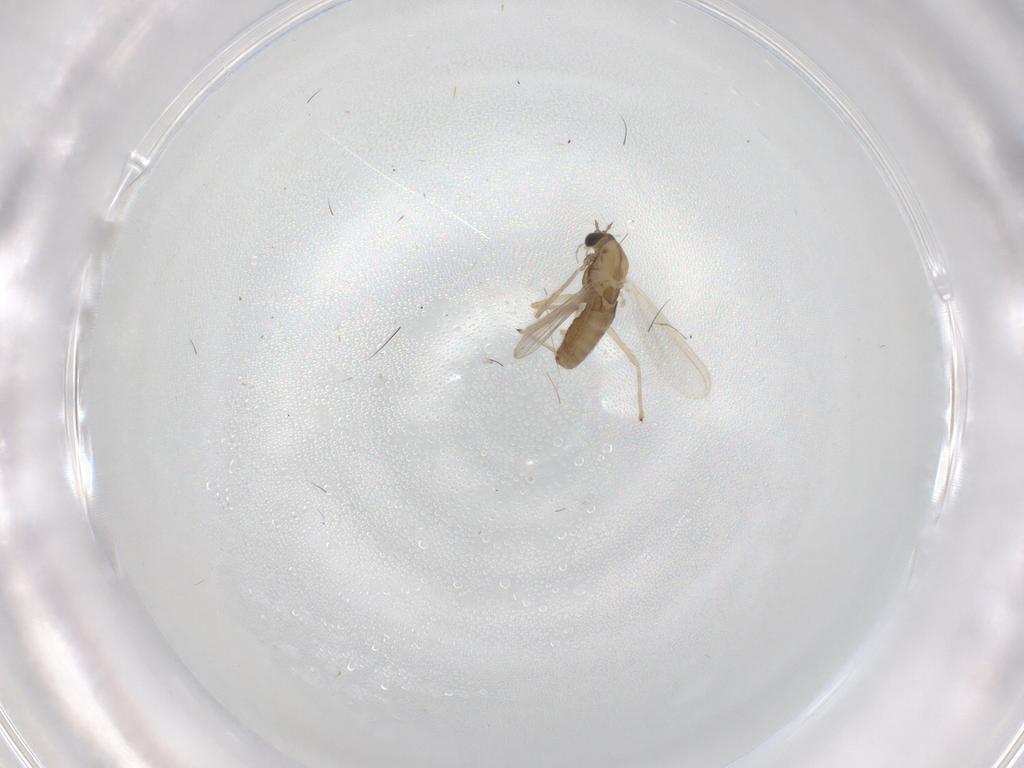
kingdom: Animalia
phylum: Arthropoda
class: Insecta
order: Diptera
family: Chironomidae
